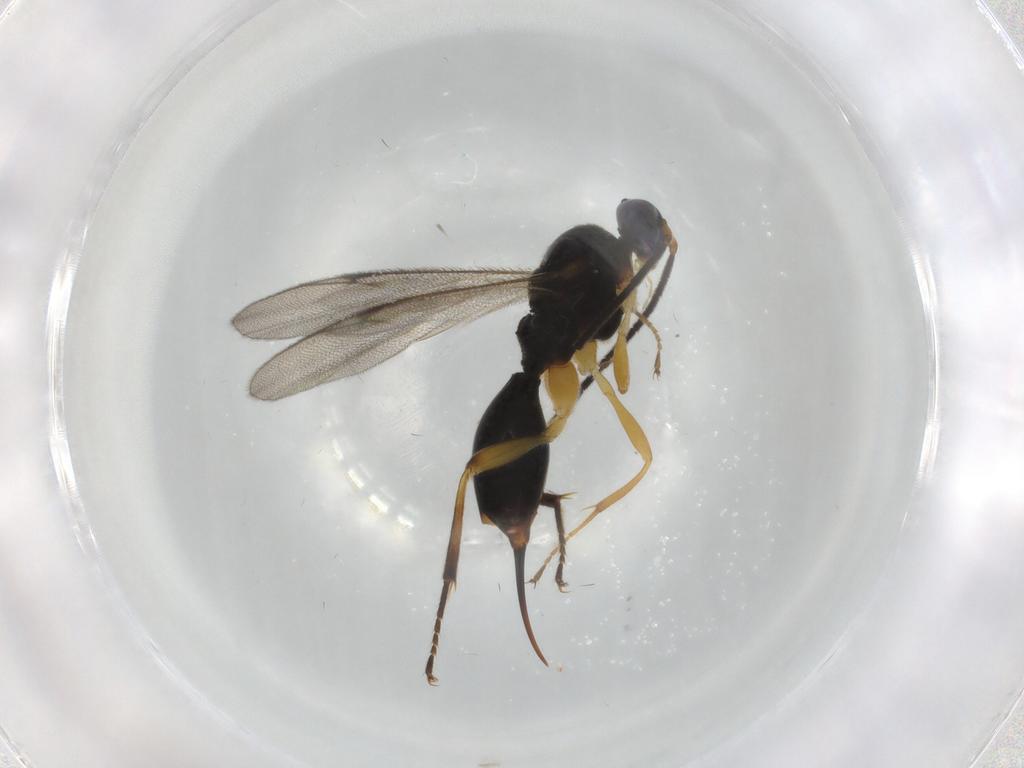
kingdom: Animalia
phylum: Arthropoda
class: Insecta
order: Hymenoptera
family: Proctotrupidae
